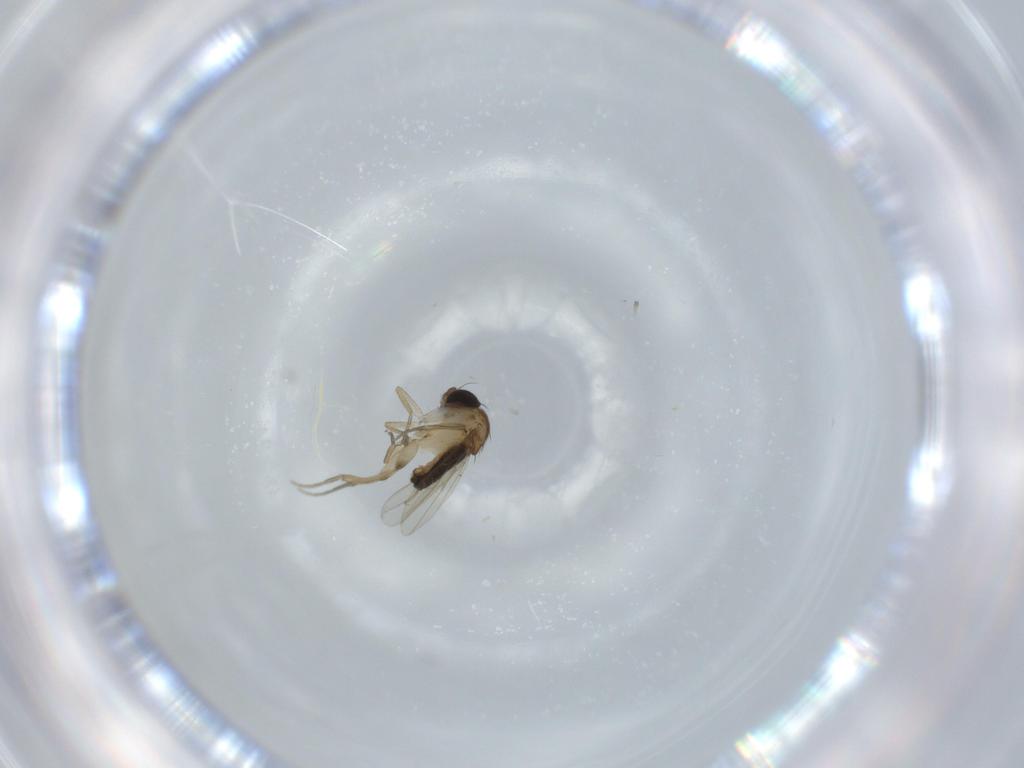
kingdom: Animalia
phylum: Arthropoda
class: Insecta
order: Diptera
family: Phoridae
